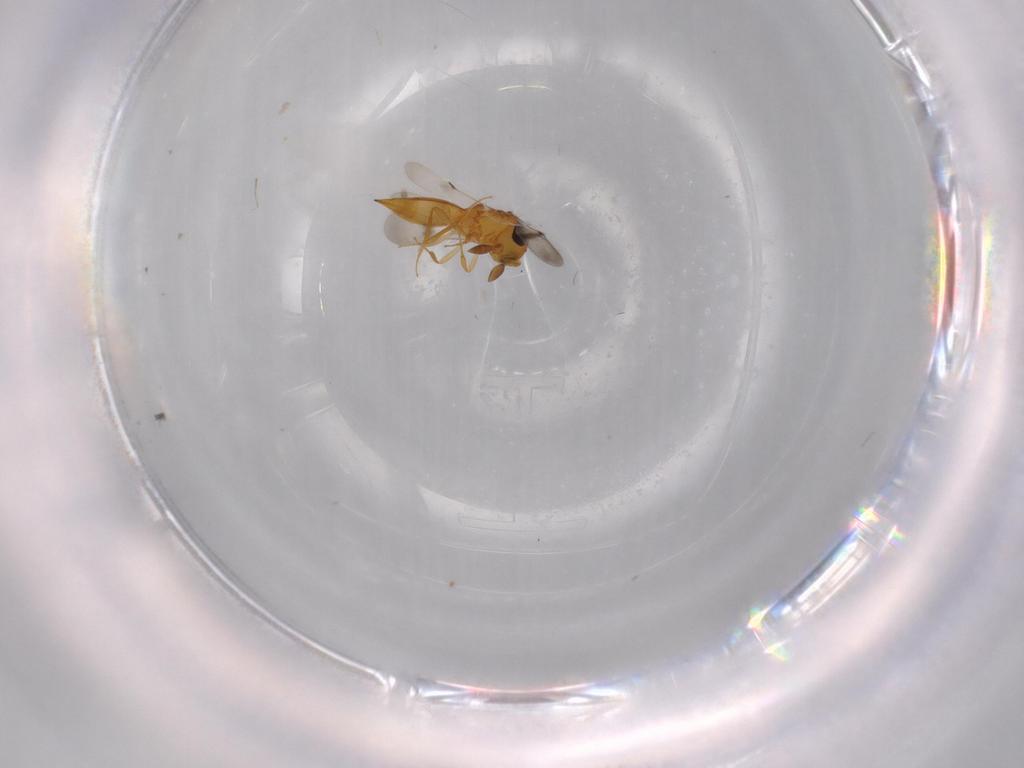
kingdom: Animalia
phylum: Arthropoda
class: Insecta
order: Hymenoptera
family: Scelionidae
